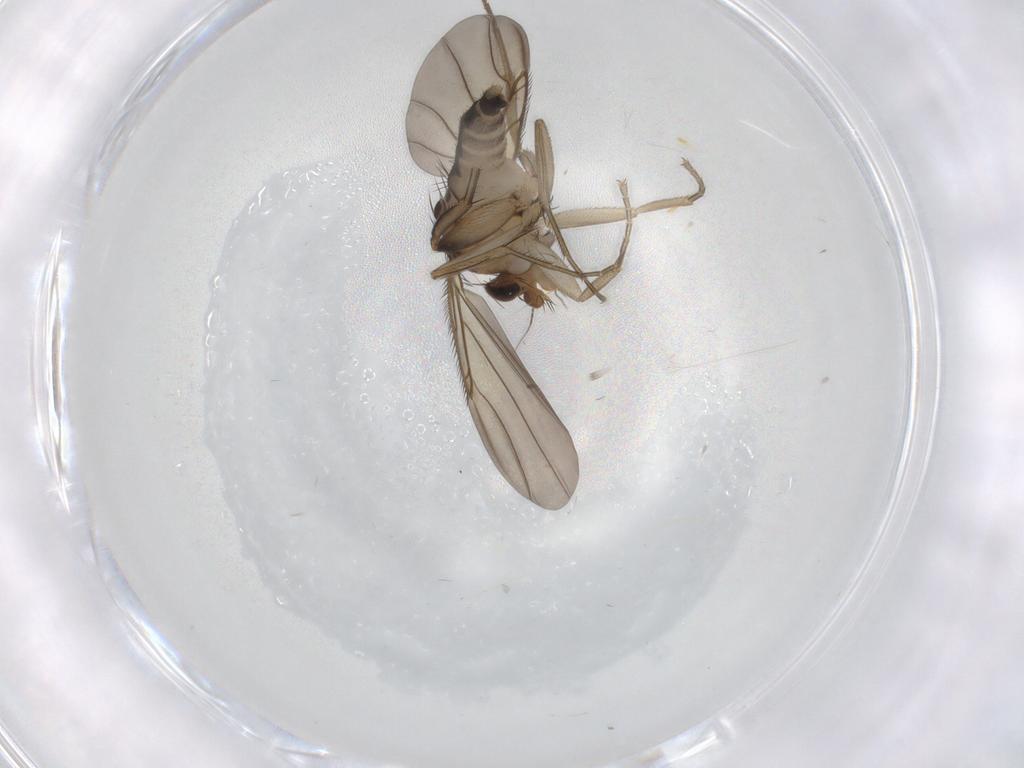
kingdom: Animalia
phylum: Arthropoda
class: Insecta
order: Diptera
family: Phoridae
